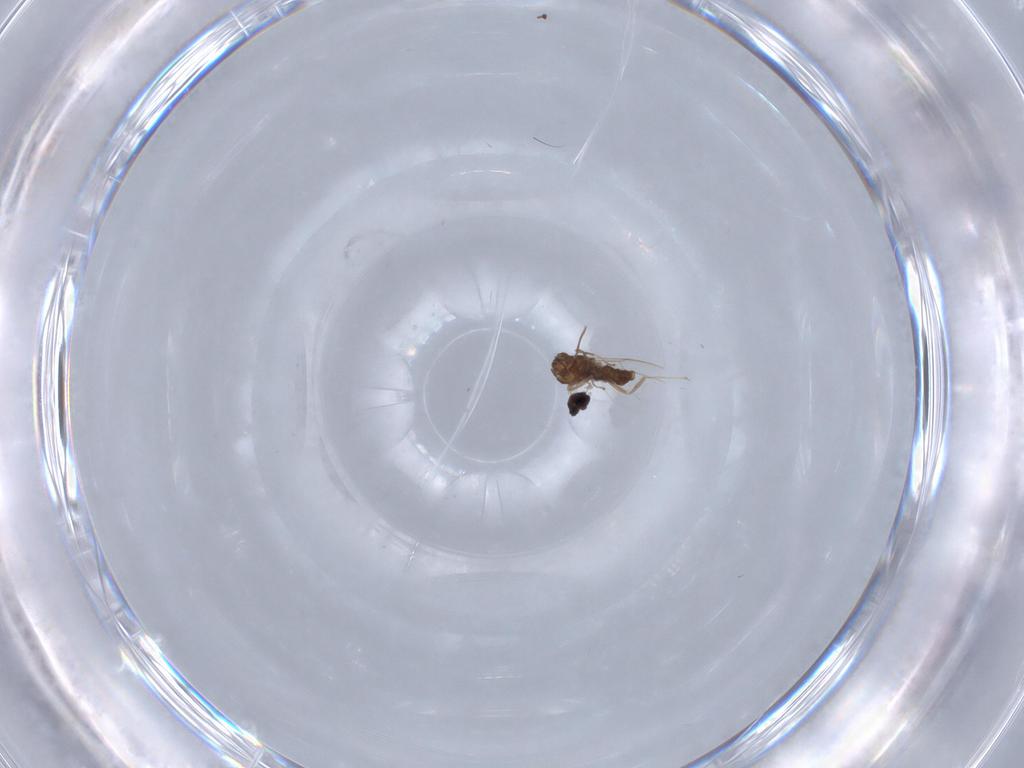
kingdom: Animalia
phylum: Arthropoda
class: Insecta
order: Diptera
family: Cecidomyiidae
